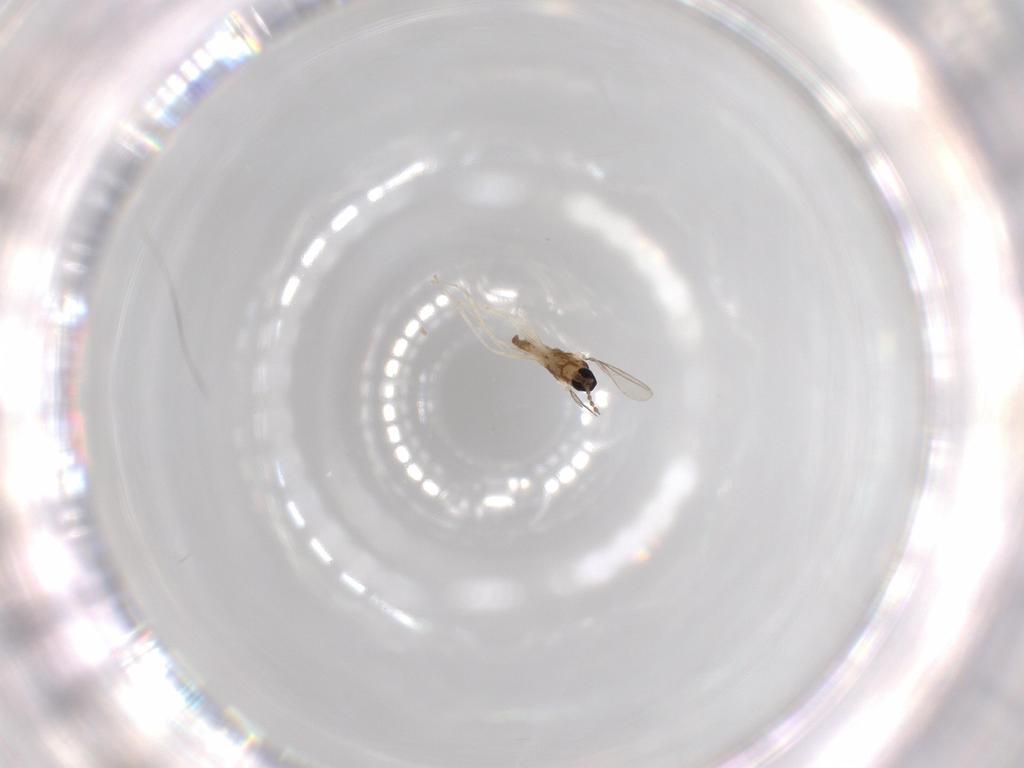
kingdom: Animalia
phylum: Arthropoda
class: Insecta
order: Diptera
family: Cecidomyiidae
